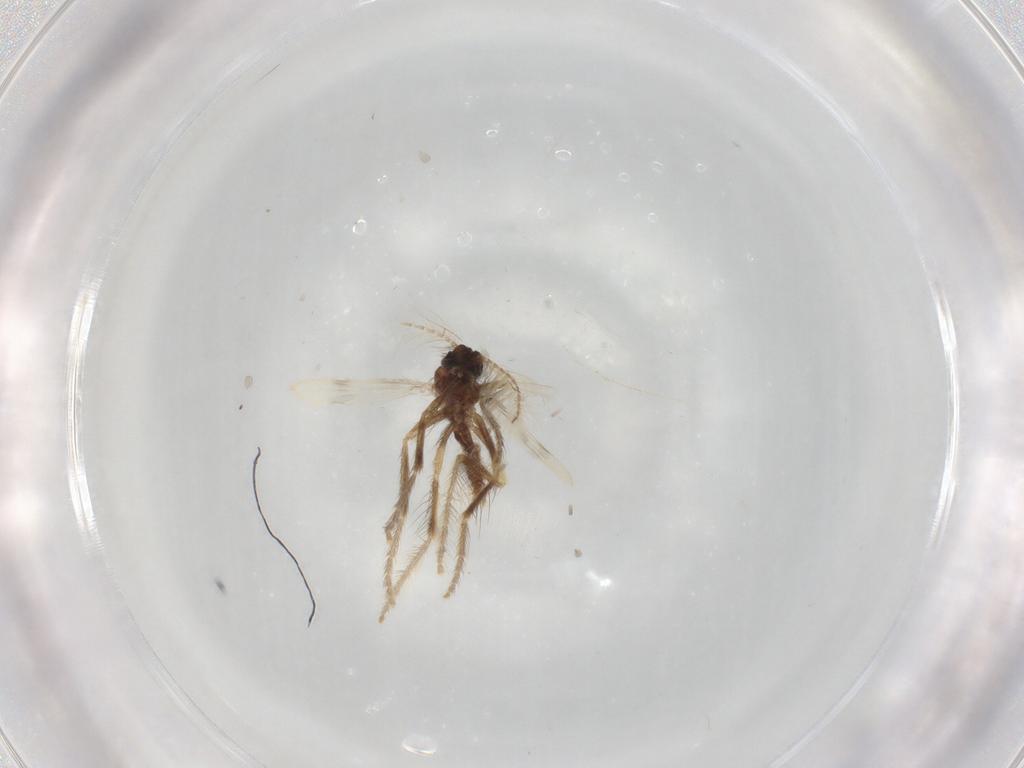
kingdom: Animalia
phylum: Arthropoda
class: Insecta
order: Diptera
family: Corethrellidae
